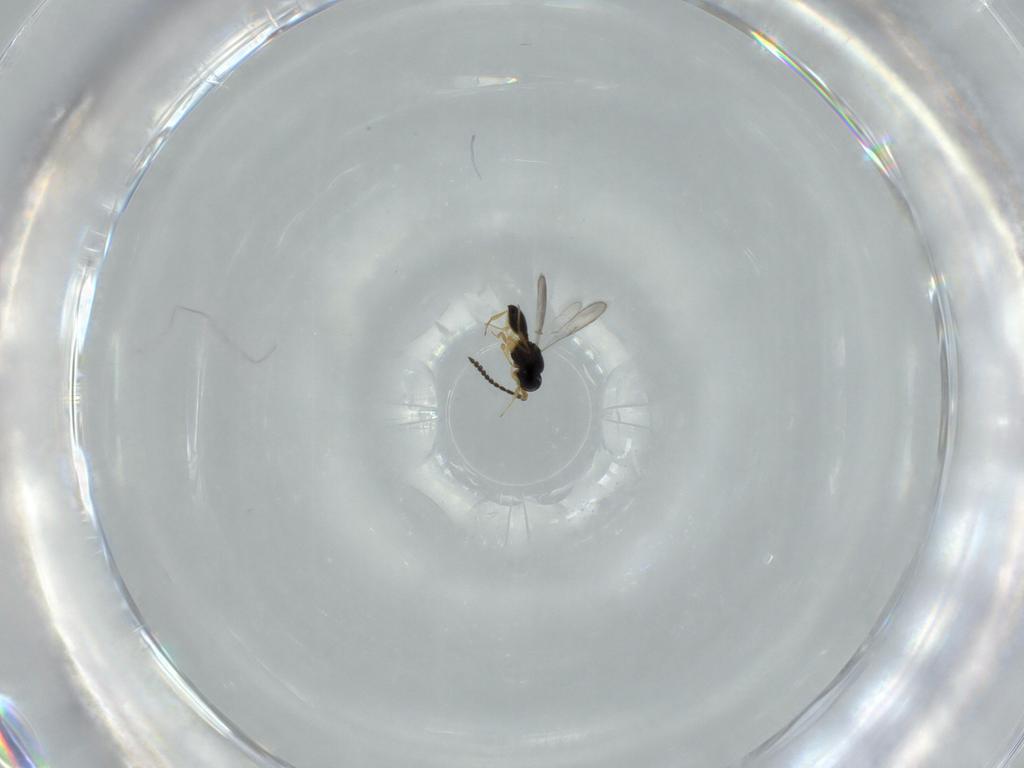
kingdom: Animalia
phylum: Arthropoda
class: Insecta
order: Hymenoptera
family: Scelionidae
